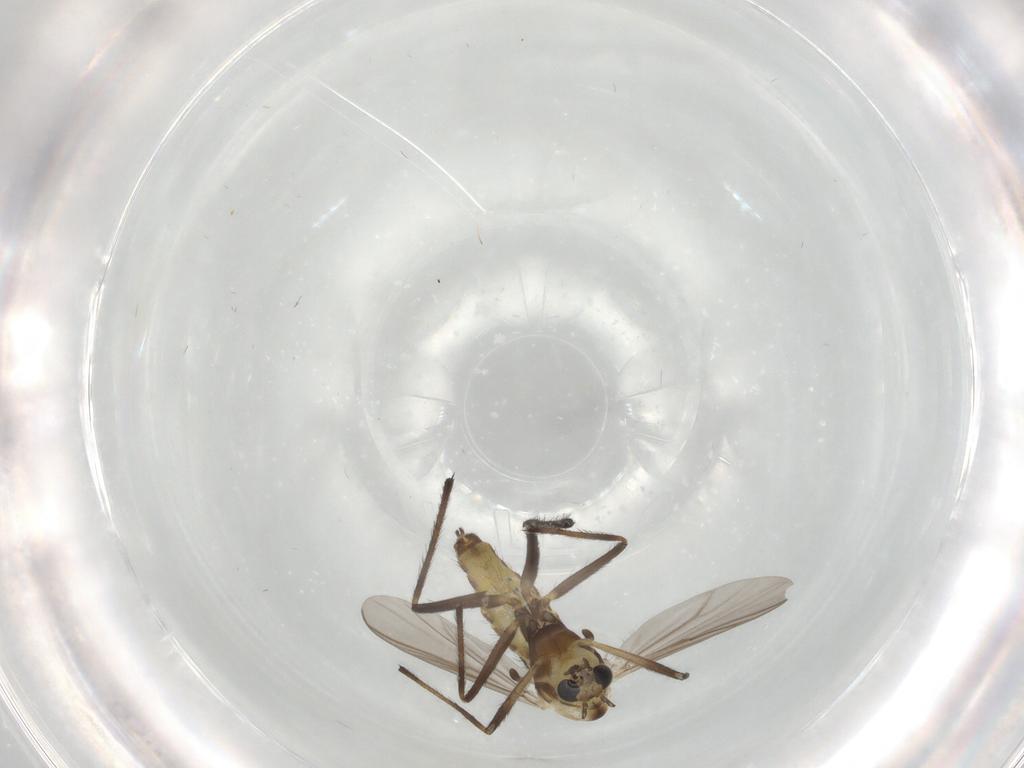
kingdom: Animalia
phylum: Arthropoda
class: Insecta
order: Diptera
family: Chironomidae
